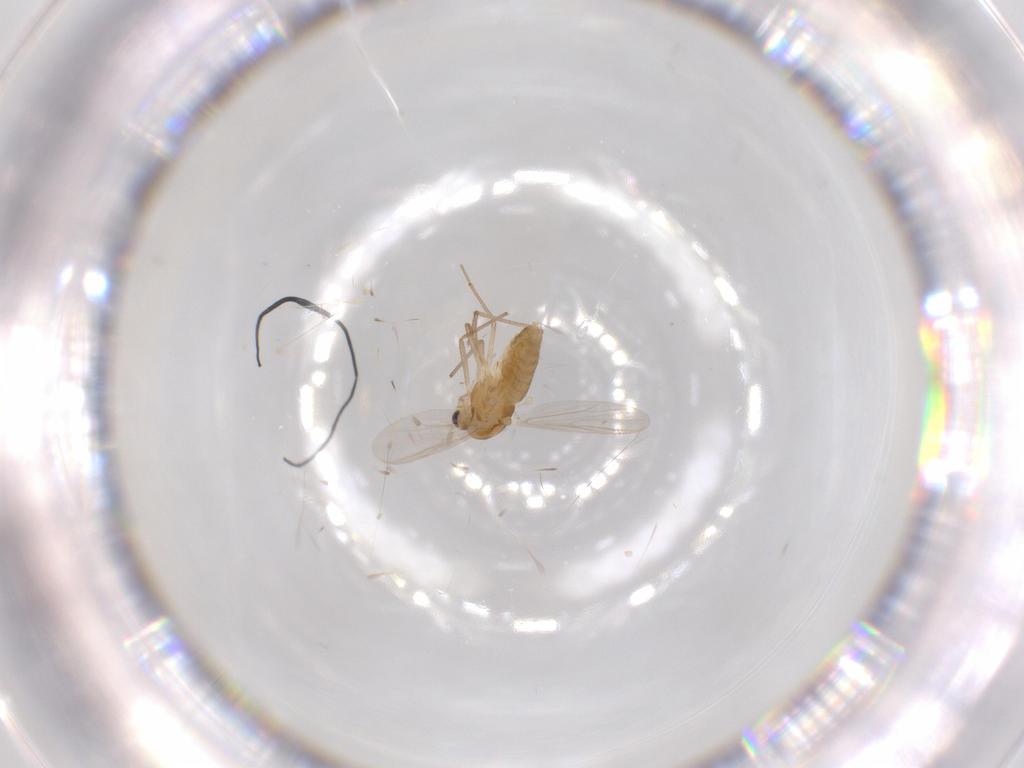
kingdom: Animalia
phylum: Arthropoda
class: Insecta
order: Diptera
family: Chironomidae
